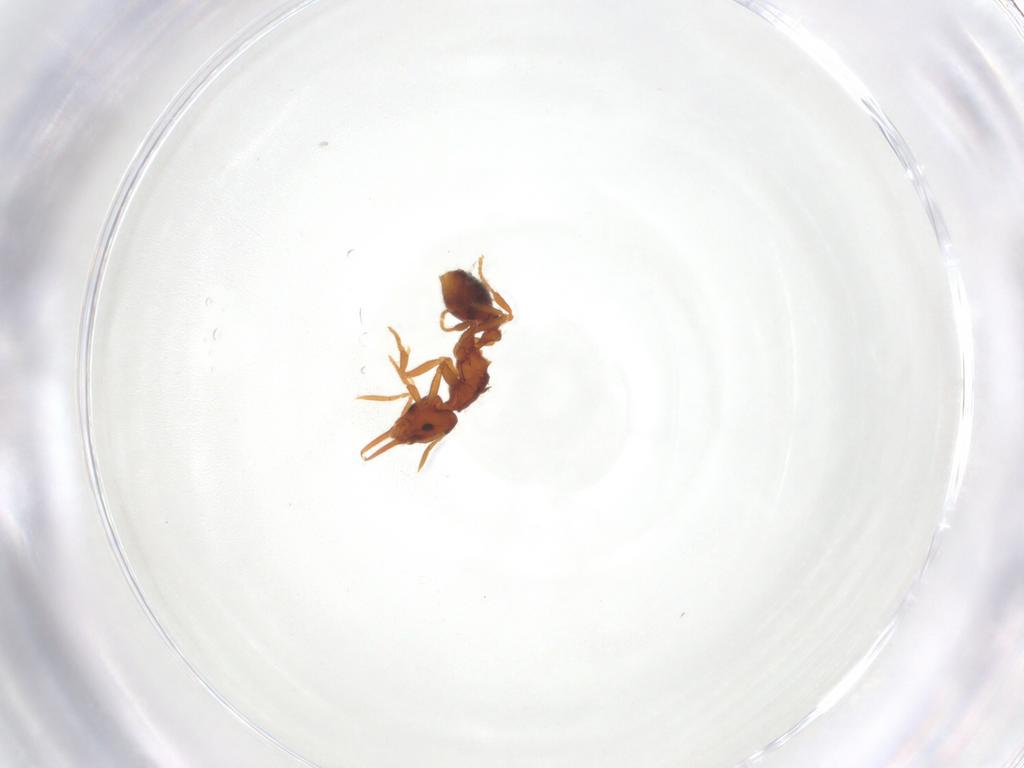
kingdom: Animalia
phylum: Arthropoda
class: Insecta
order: Hymenoptera
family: Formicidae
